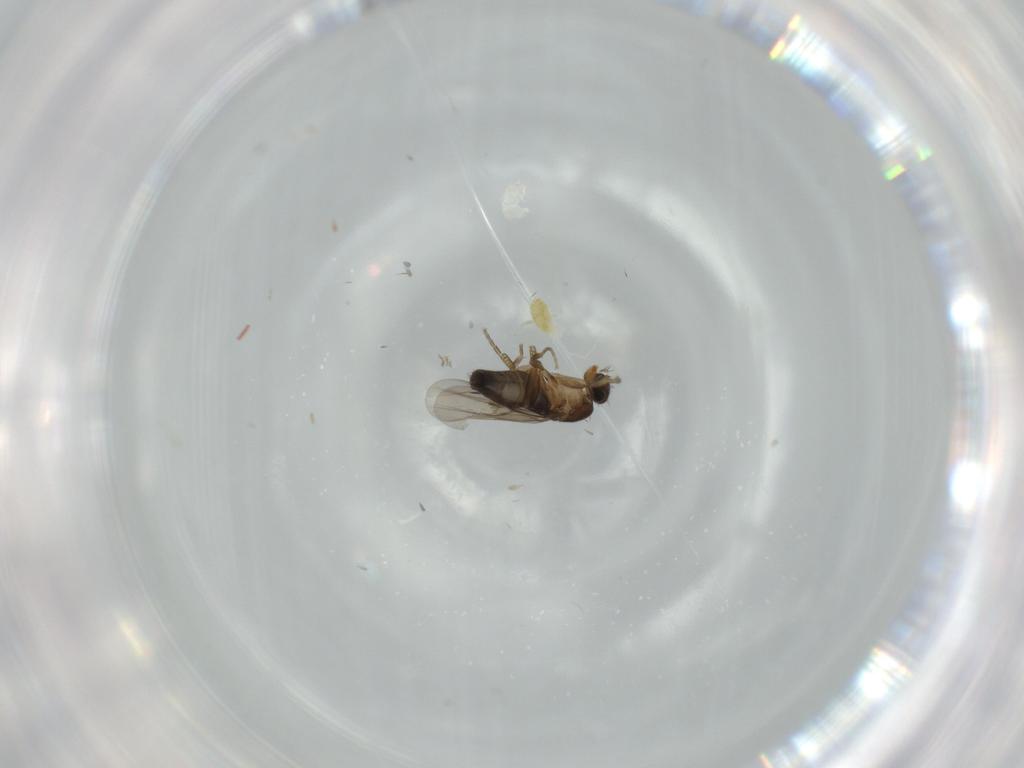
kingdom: Animalia
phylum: Arthropoda
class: Insecta
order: Diptera
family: Phoridae
